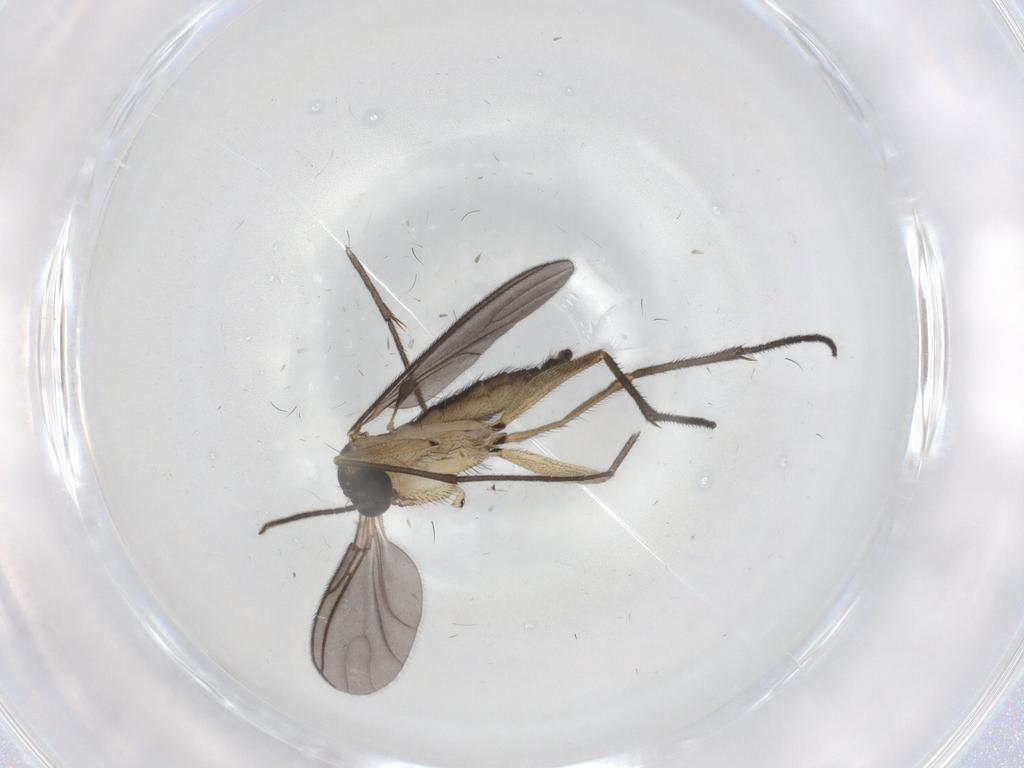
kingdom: Animalia
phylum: Arthropoda
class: Insecta
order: Diptera
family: Sciaridae
